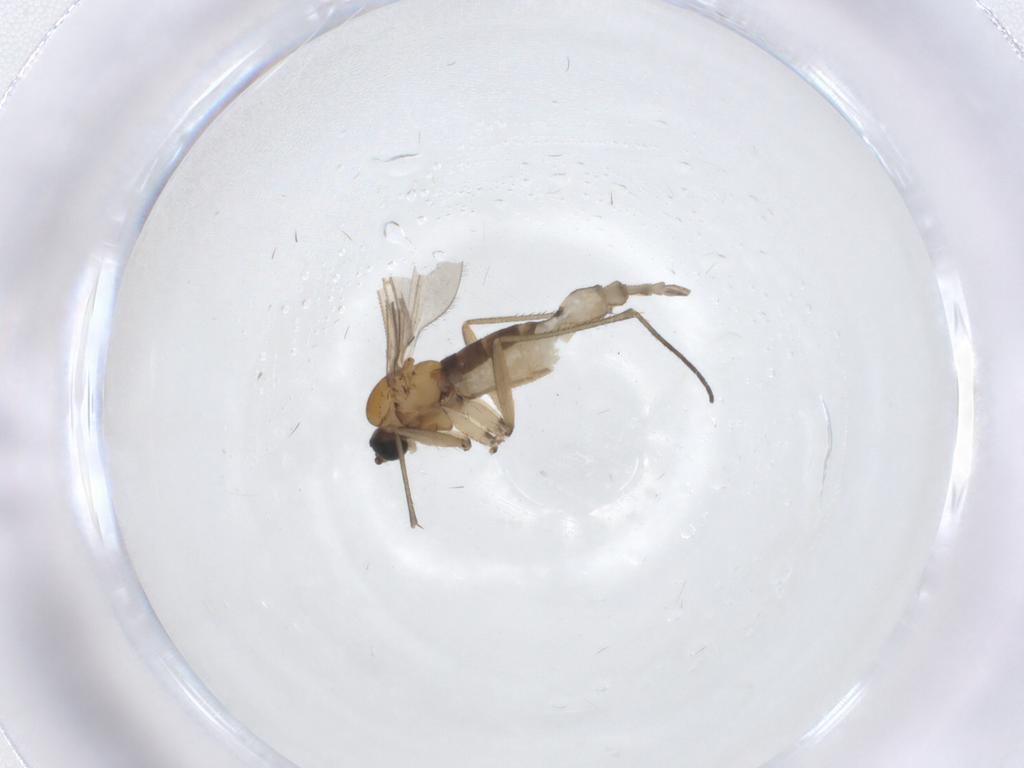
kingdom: Animalia
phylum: Arthropoda
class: Insecta
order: Diptera
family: Sciaridae
